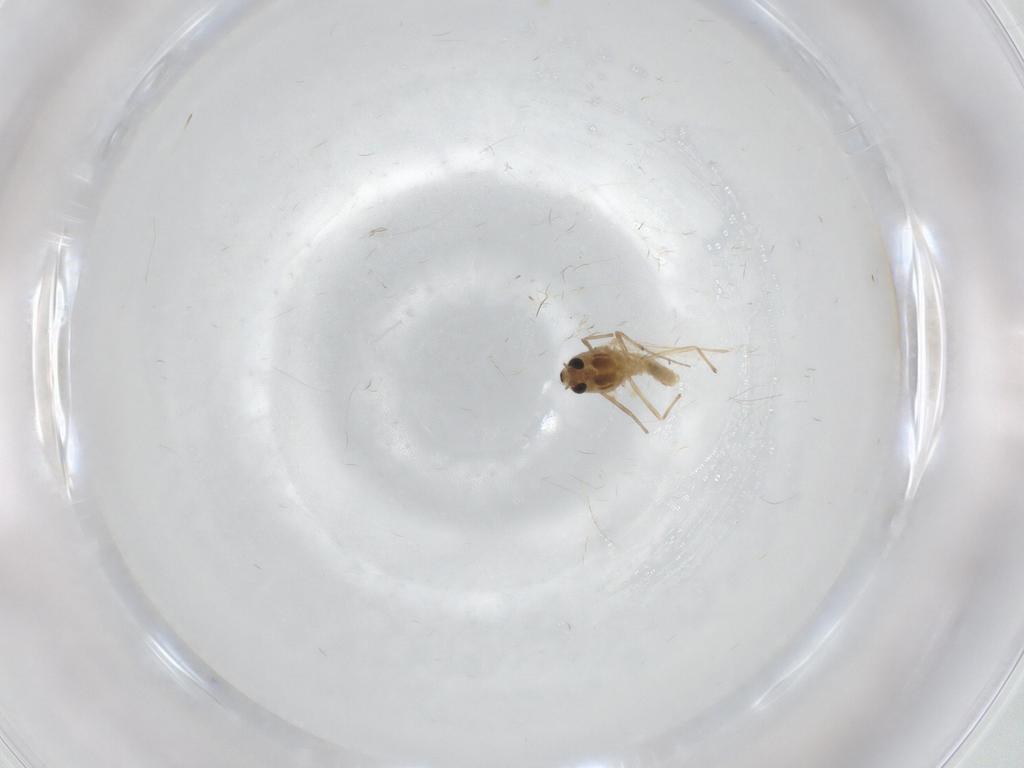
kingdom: Animalia
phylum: Arthropoda
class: Insecta
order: Diptera
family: Chironomidae
